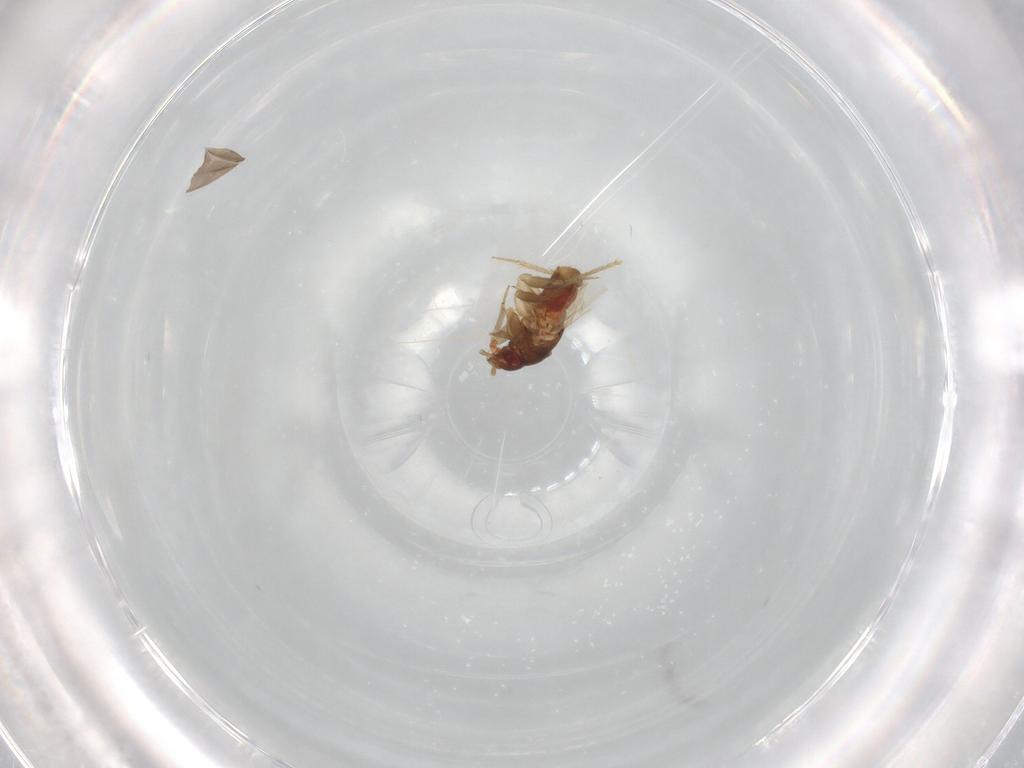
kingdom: Animalia
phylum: Arthropoda
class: Insecta
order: Hemiptera
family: Ceratocombidae
